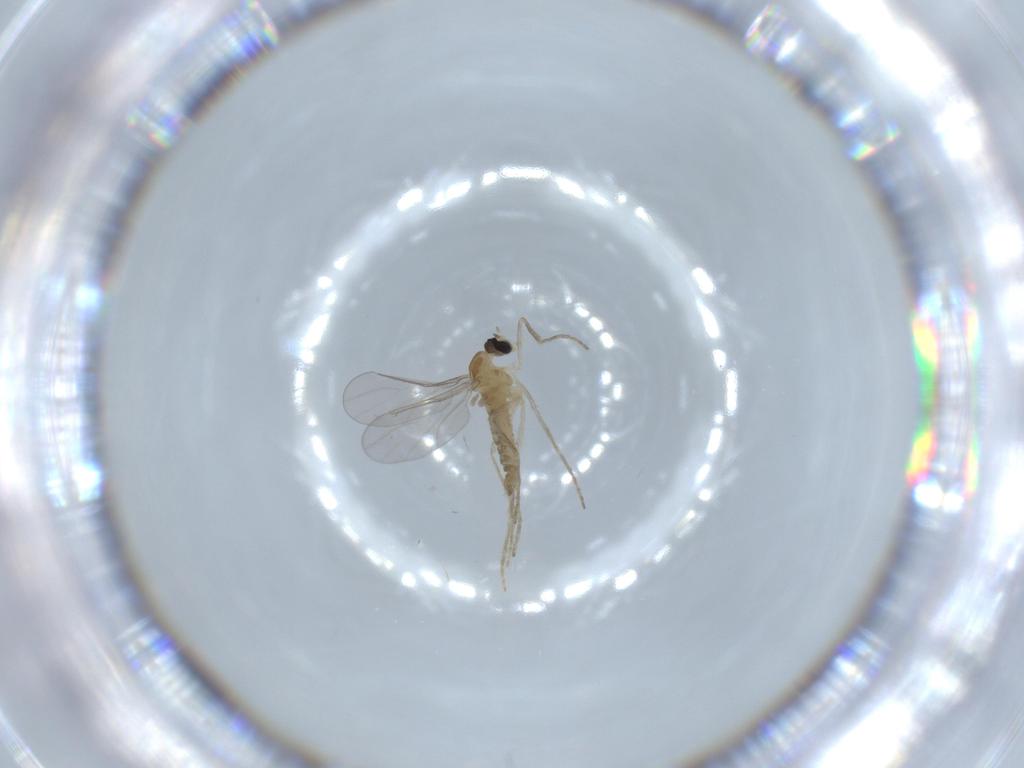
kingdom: Animalia
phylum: Arthropoda
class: Insecta
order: Diptera
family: Cecidomyiidae
